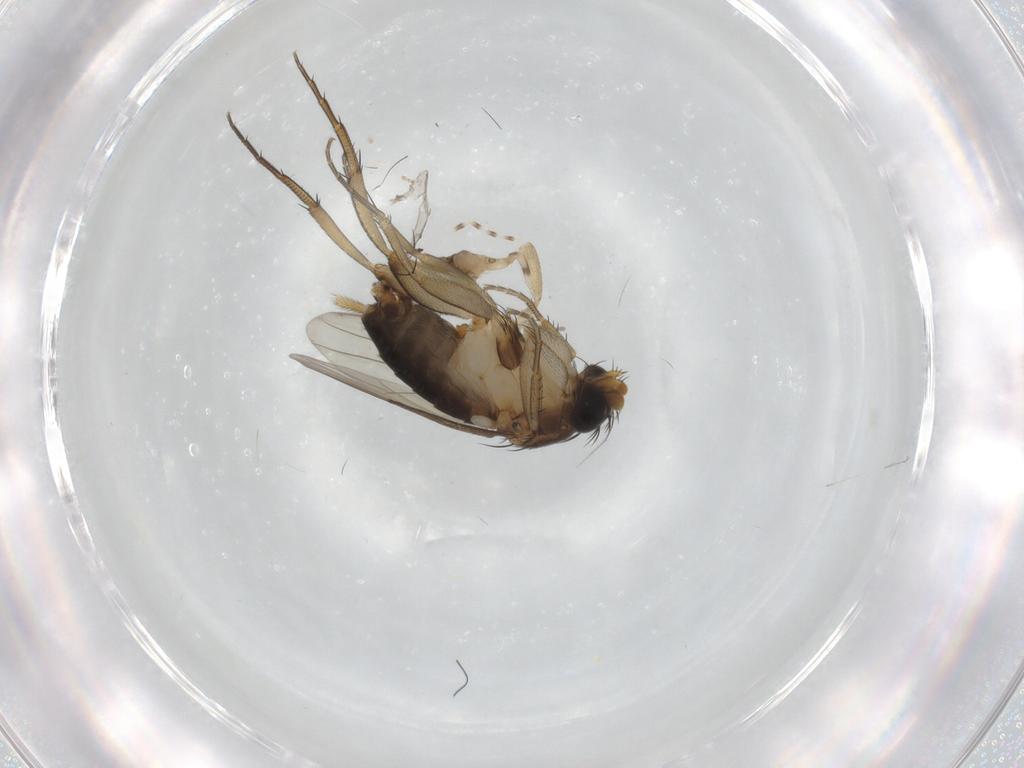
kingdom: Animalia
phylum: Arthropoda
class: Insecta
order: Diptera
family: Cecidomyiidae
